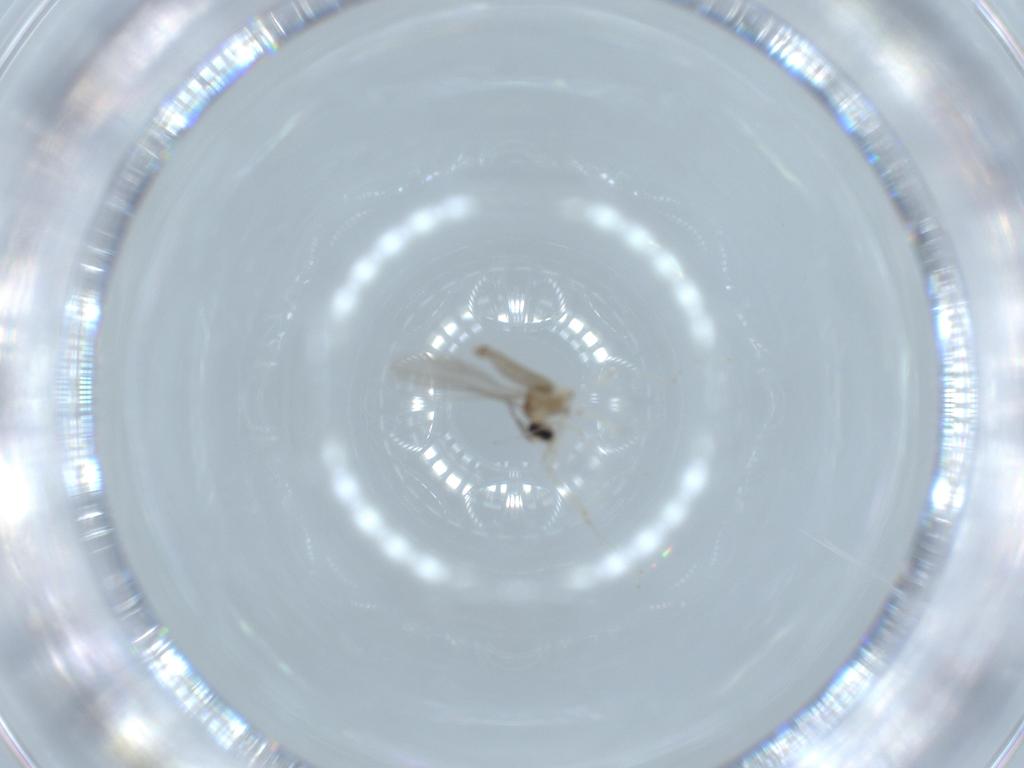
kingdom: Animalia
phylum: Arthropoda
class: Insecta
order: Diptera
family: Cecidomyiidae
